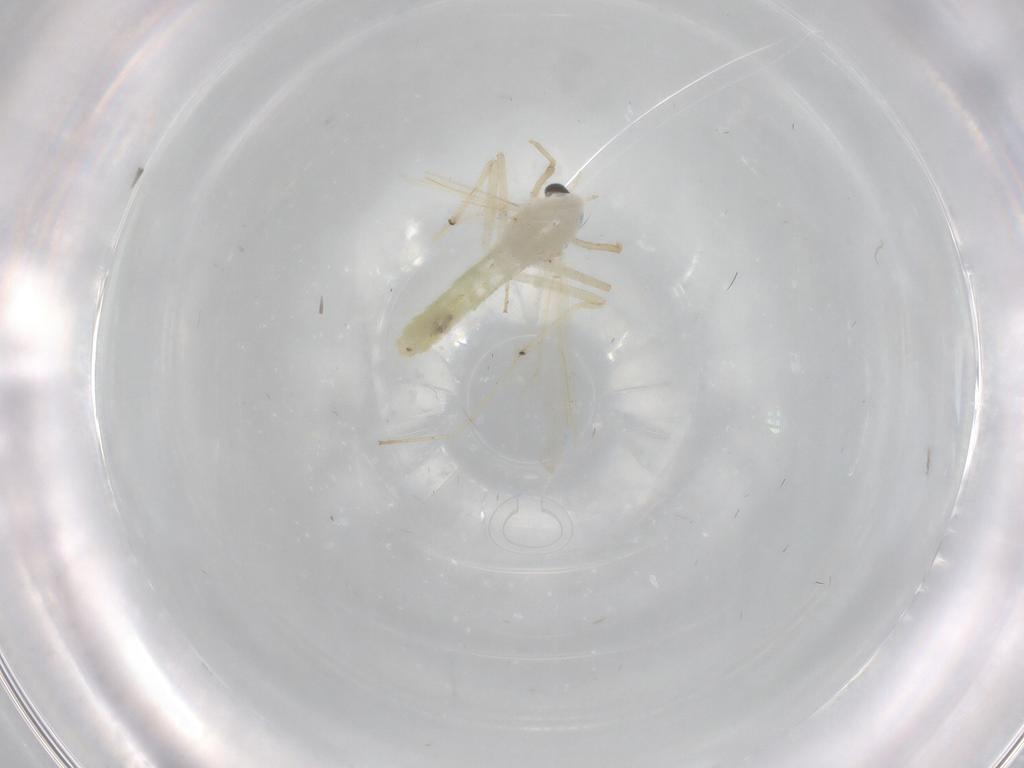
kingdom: Animalia
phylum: Arthropoda
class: Insecta
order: Diptera
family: Chironomidae
